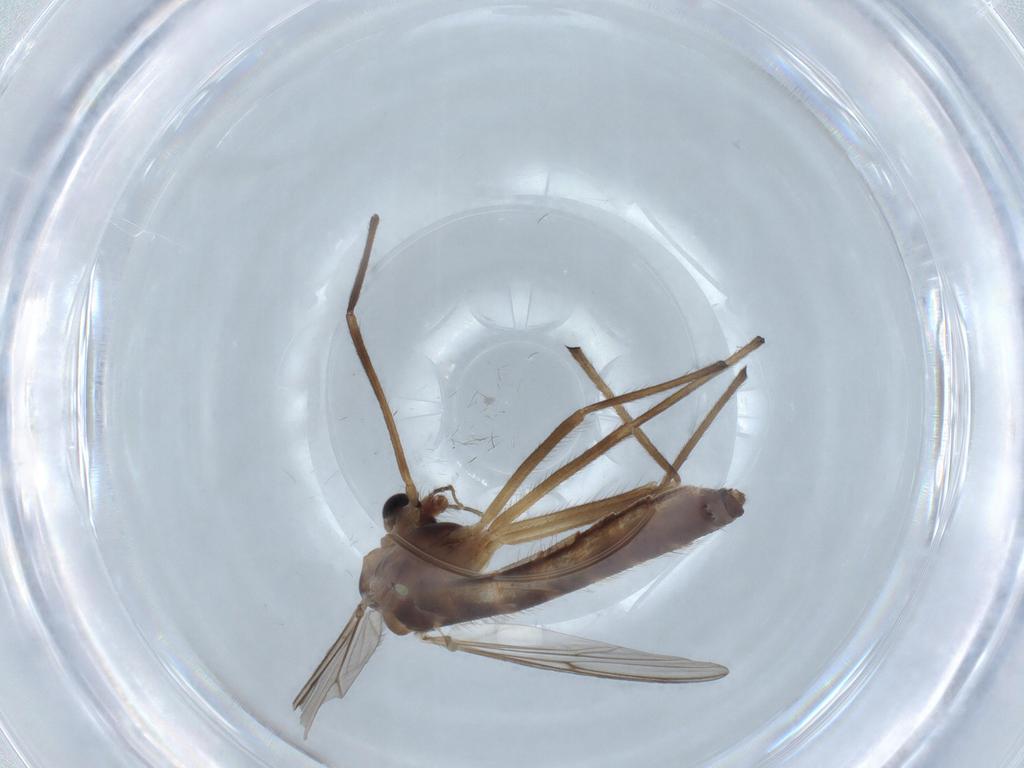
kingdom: Animalia
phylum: Arthropoda
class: Insecta
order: Diptera
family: Chironomidae
